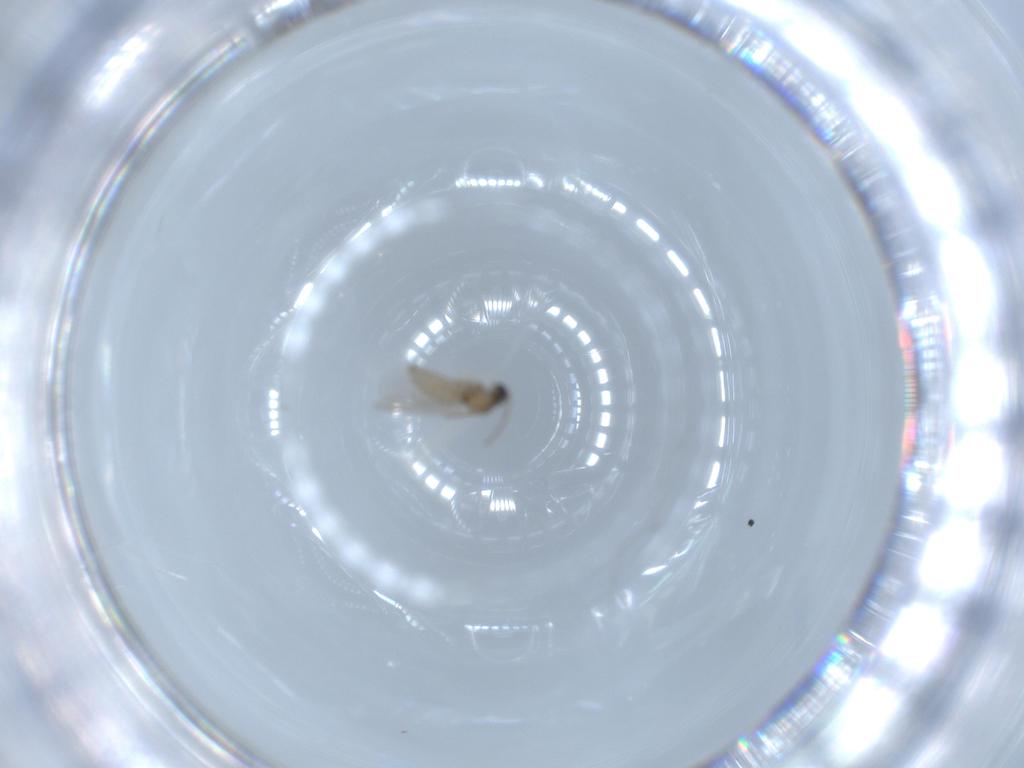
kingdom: Animalia
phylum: Arthropoda
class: Insecta
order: Diptera
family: Cecidomyiidae
